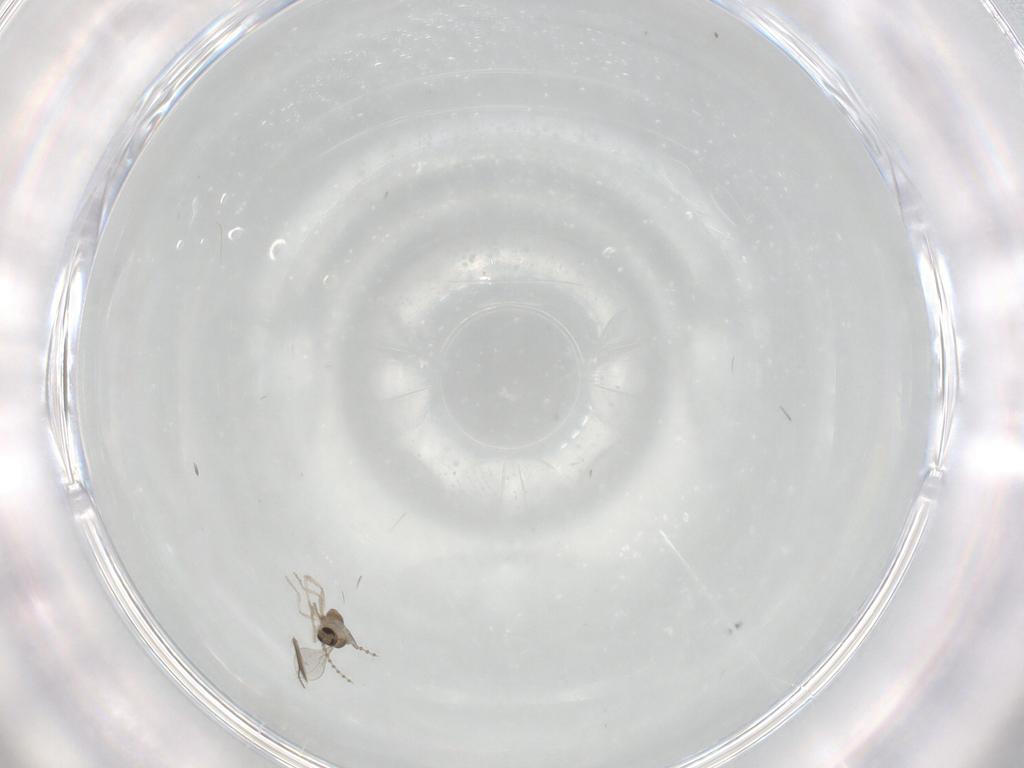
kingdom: Animalia
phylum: Arthropoda
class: Insecta
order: Diptera
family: Cecidomyiidae
